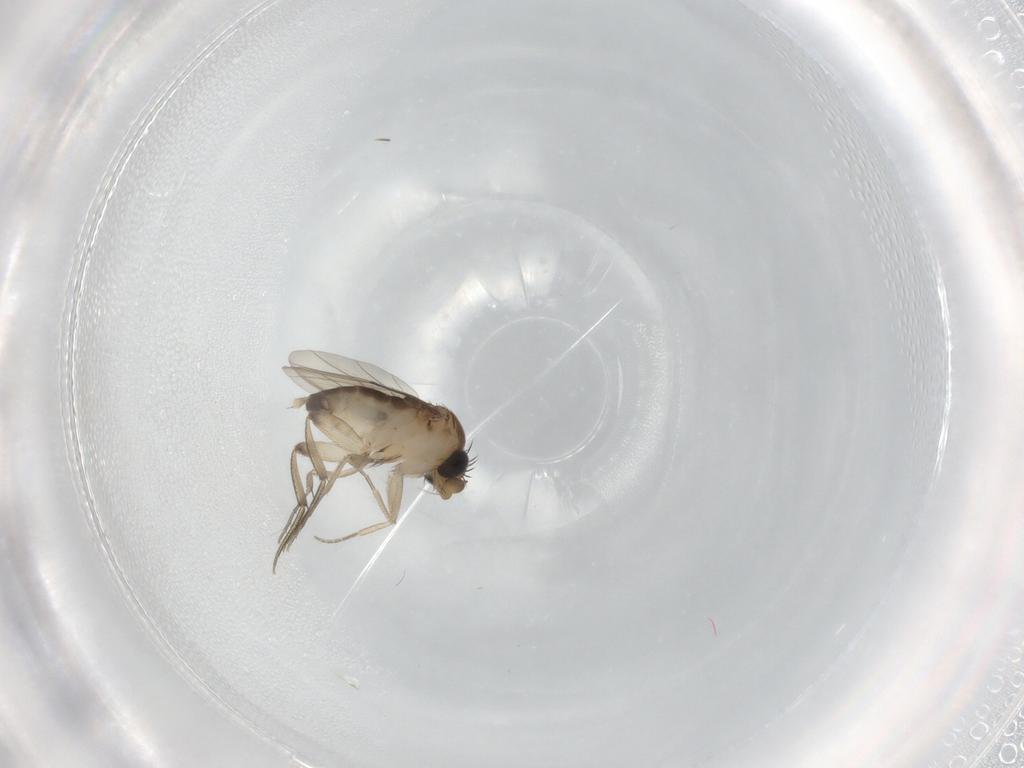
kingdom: Animalia
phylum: Arthropoda
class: Insecta
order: Diptera
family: Phoridae
